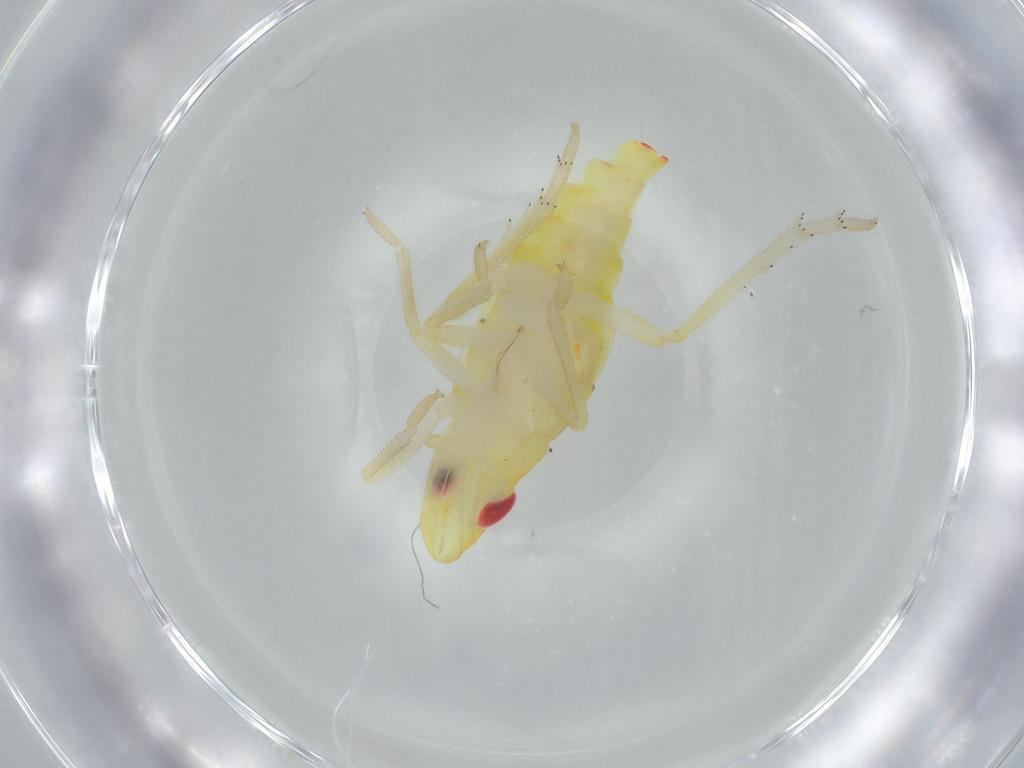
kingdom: Animalia
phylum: Arthropoda
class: Insecta
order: Hemiptera
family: Tropiduchidae
